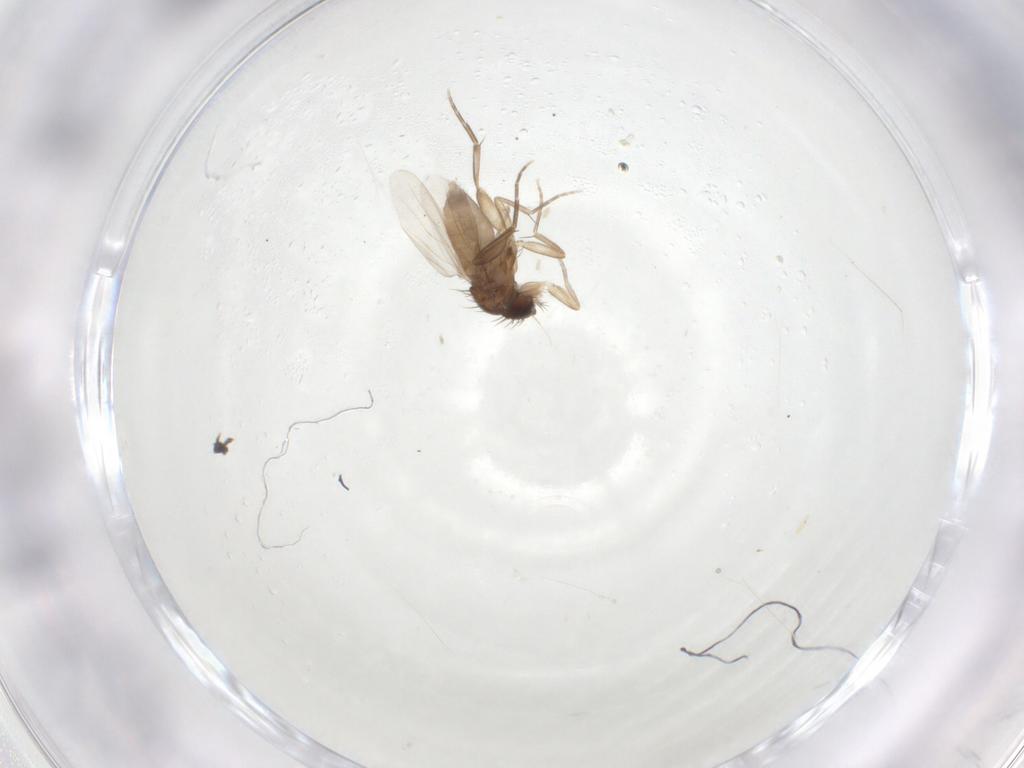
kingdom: Animalia
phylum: Arthropoda
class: Insecta
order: Diptera
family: Phoridae
